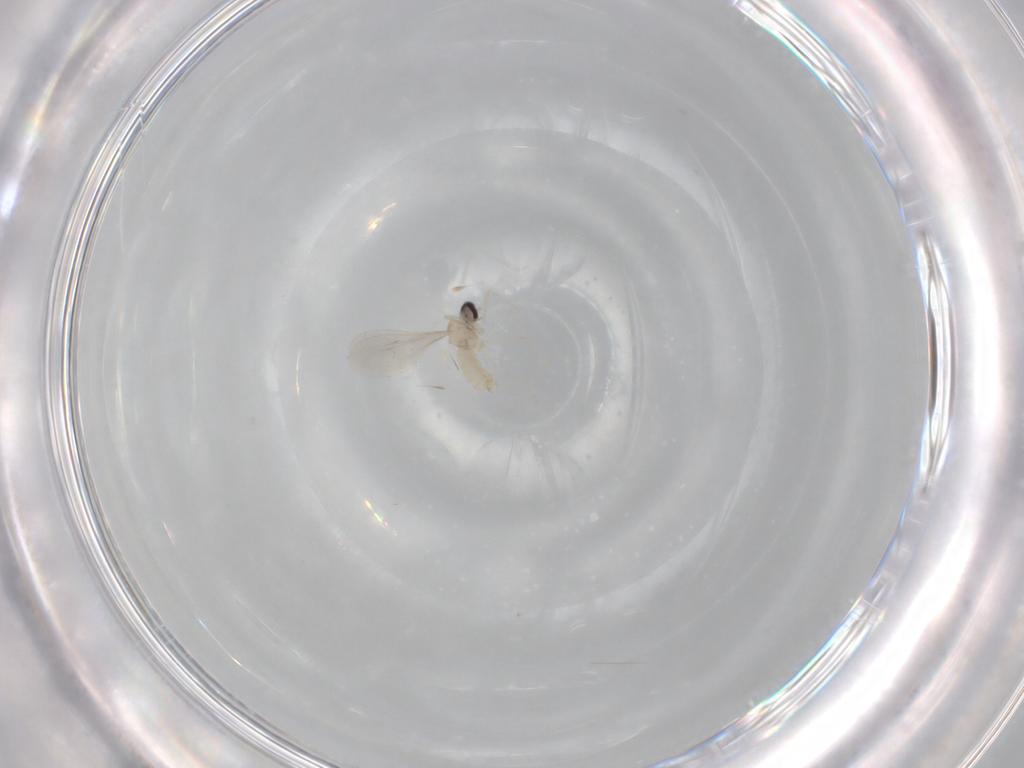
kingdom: Animalia
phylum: Arthropoda
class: Insecta
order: Diptera
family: Cecidomyiidae
